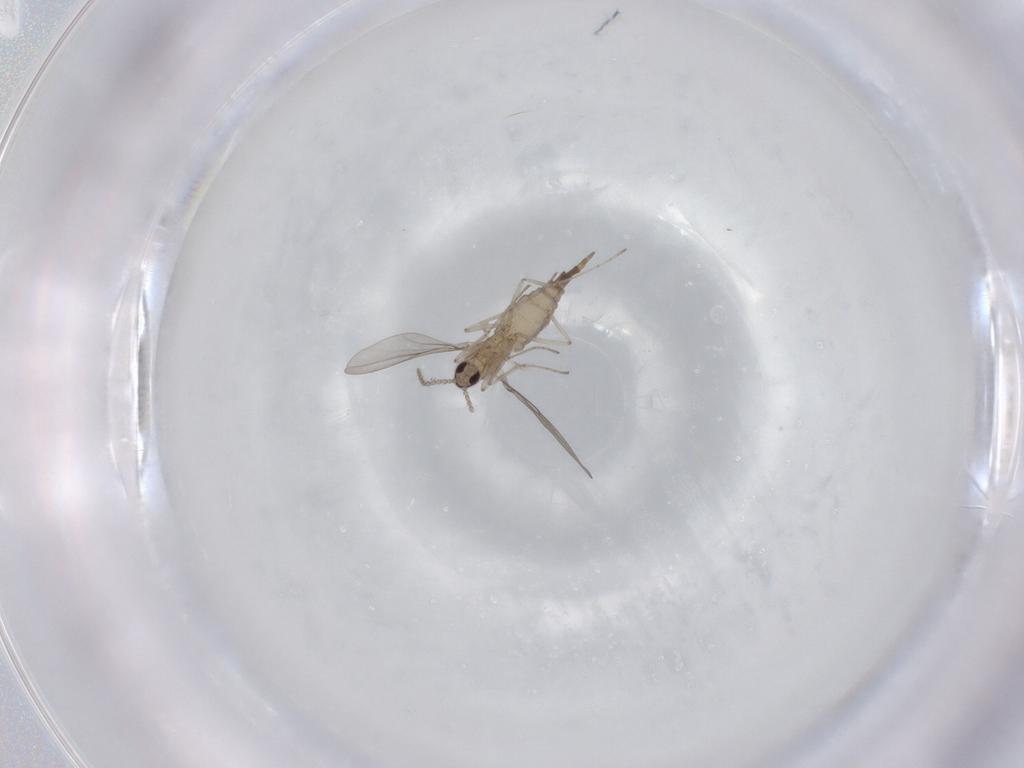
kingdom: Animalia
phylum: Arthropoda
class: Insecta
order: Diptera
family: Cecidomyiidae
